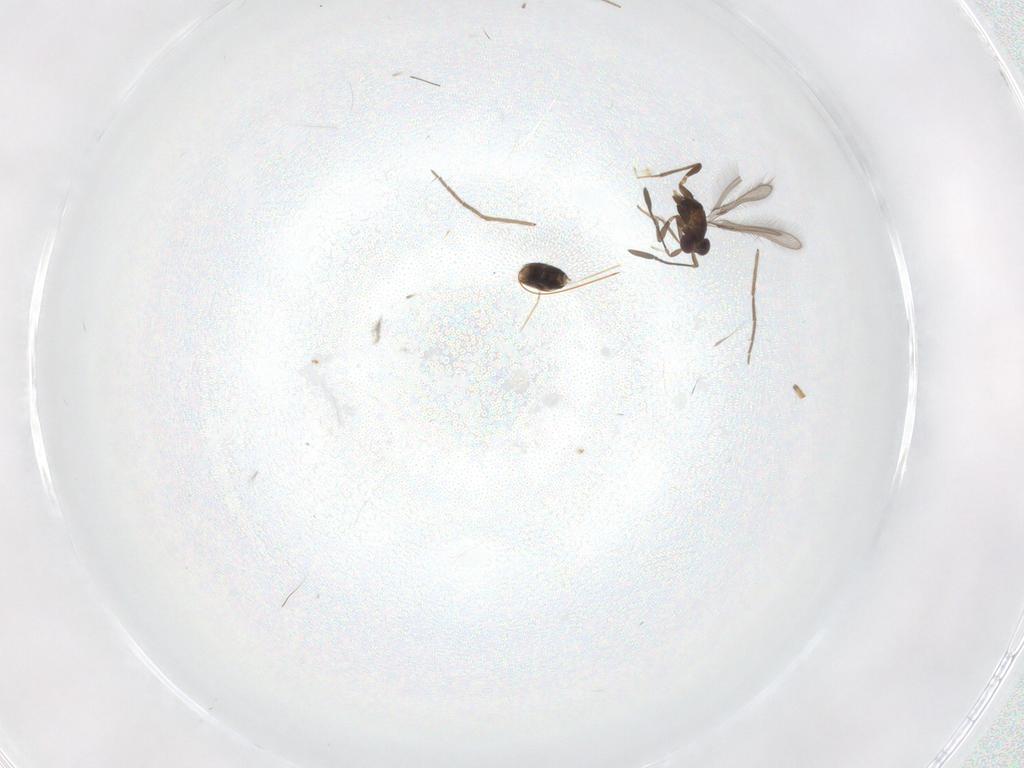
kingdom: Animalia
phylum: Arthropoda
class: Insecta
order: Hymenoptera
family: Mymaridae
